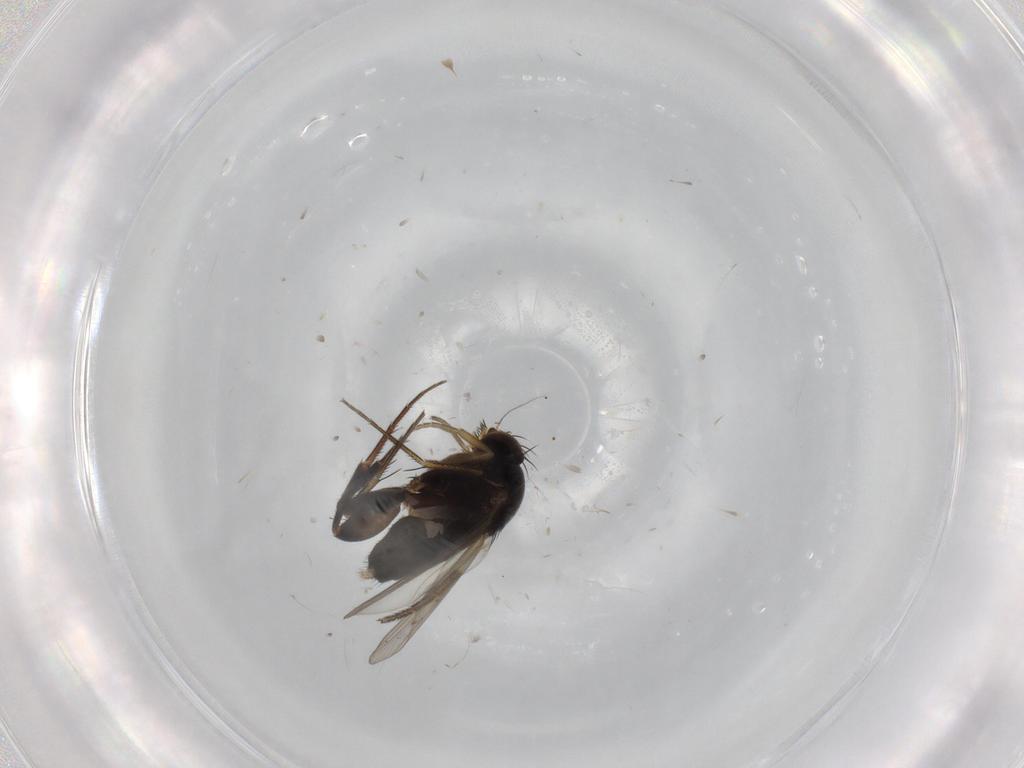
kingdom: Animalia
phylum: Arthropoda
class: Insecta
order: Diptera
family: Phoridae
